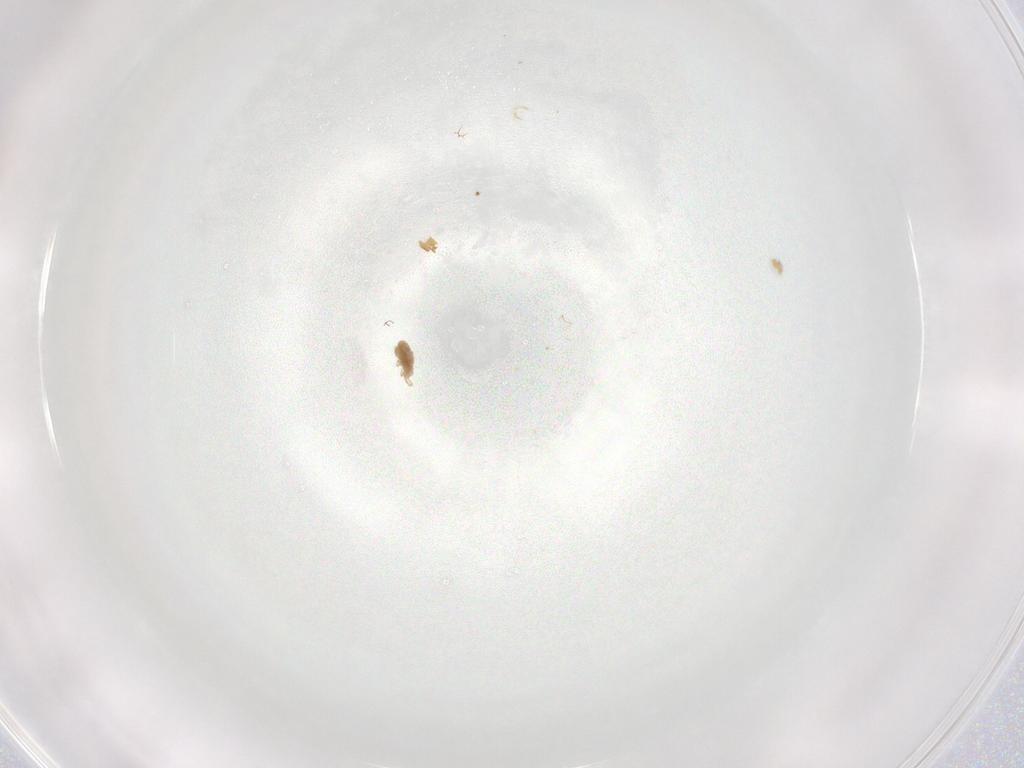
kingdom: Animalia
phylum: Arthropoda
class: Arachnida
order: Trombidiformes
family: Eupodidae
